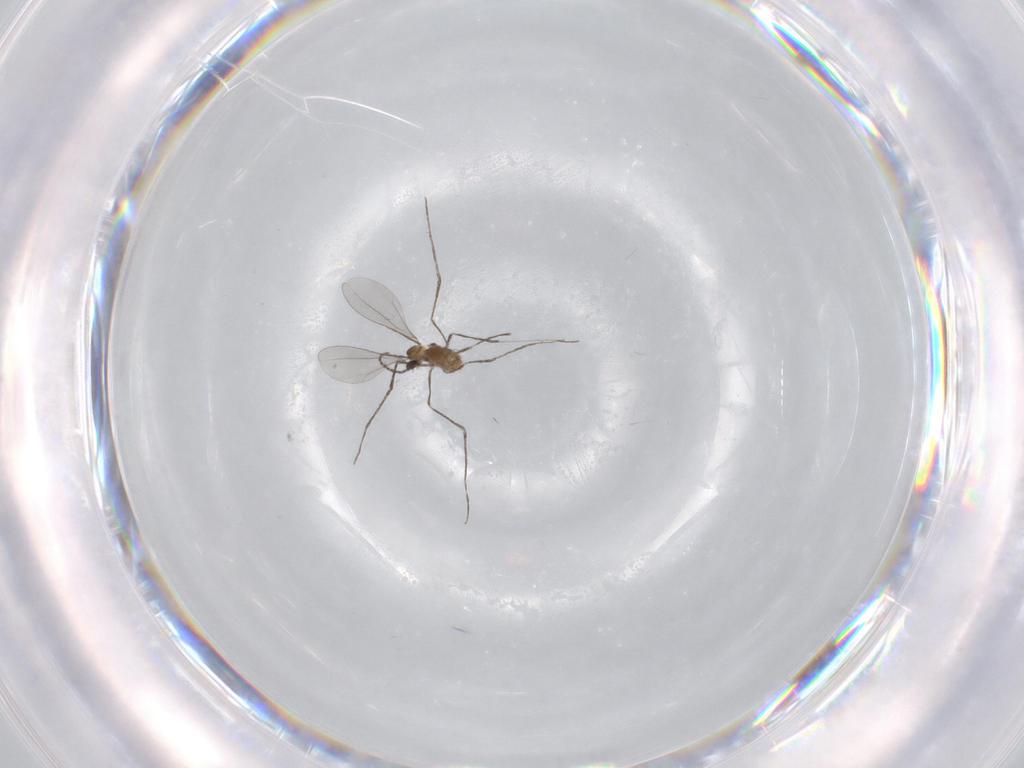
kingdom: Animalia
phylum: Arthropoda
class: Insecta
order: Diptera
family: Cecidomyiidae
